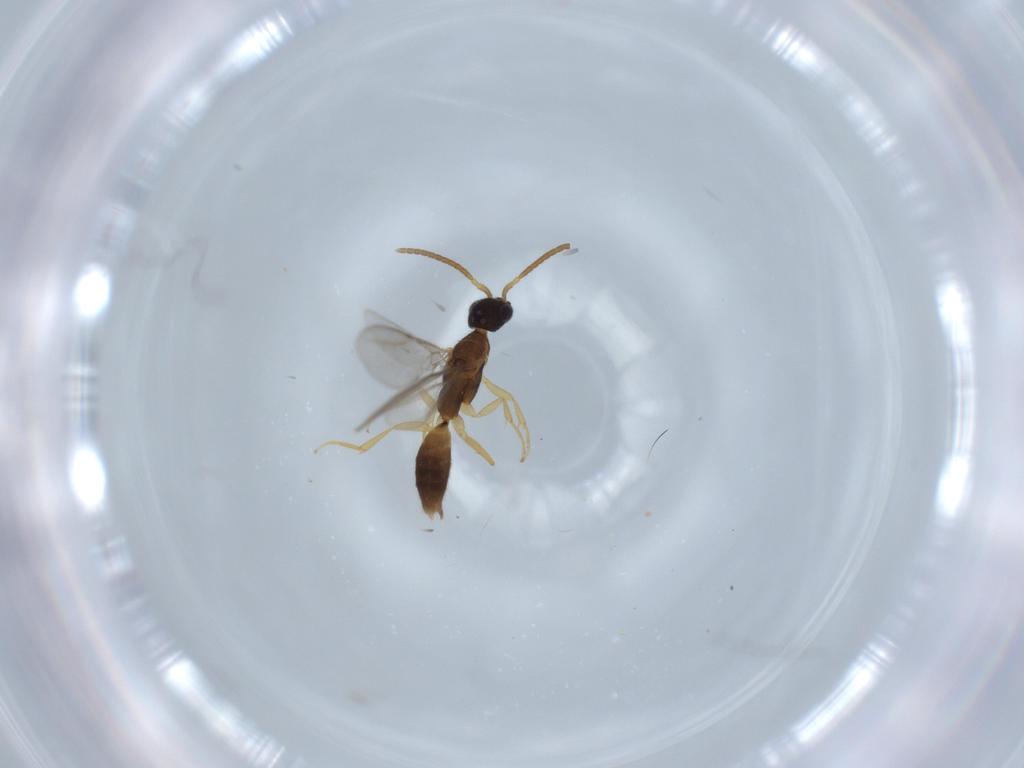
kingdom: Animalia
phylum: Arthropoda
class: Insecta
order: Hymenoptera
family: Bethylidae
